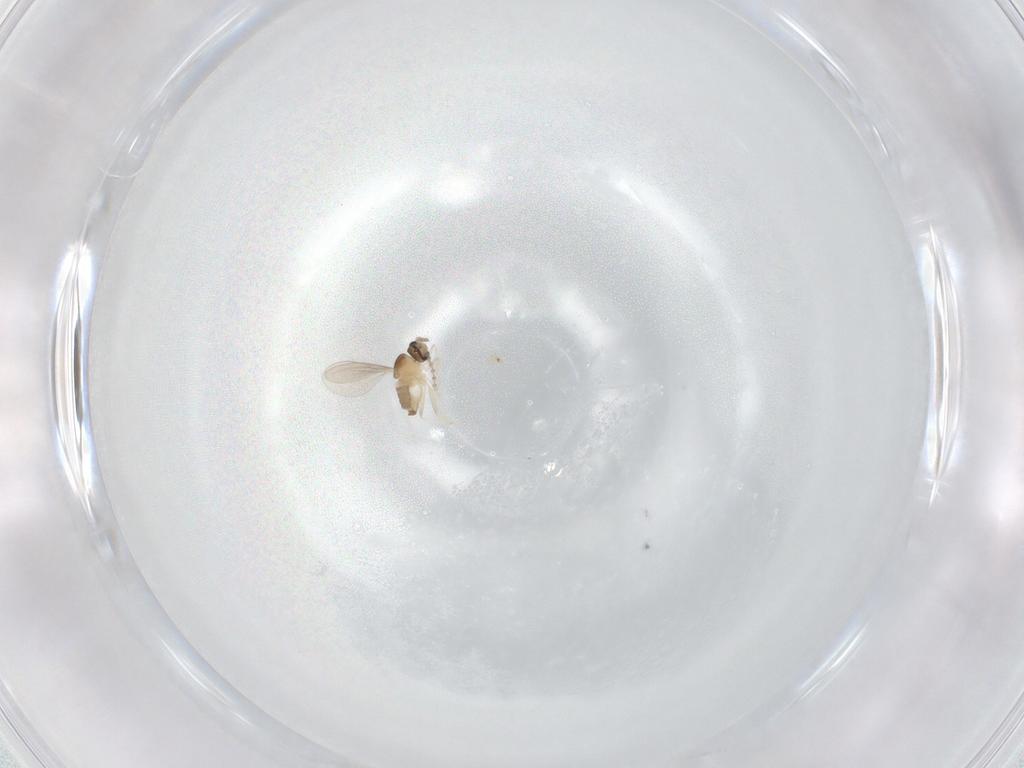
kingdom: Animalia
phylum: Arthropoda
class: Insecta
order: Diptera
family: Cecidomyiidae
